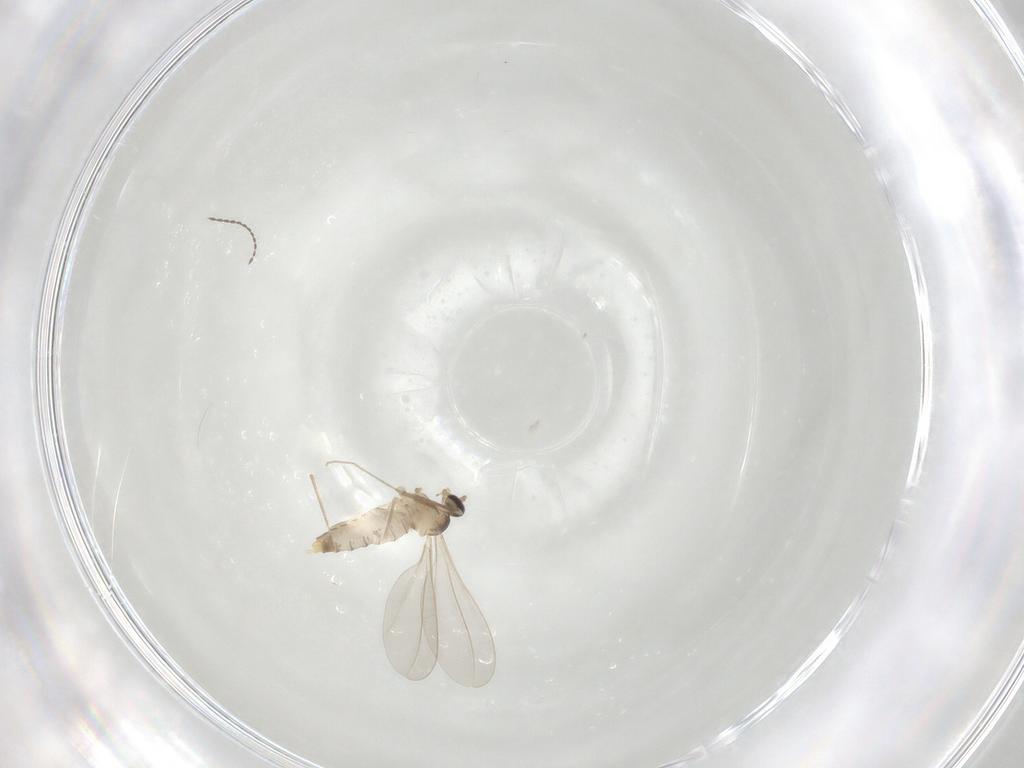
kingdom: Animalia
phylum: Arthropoda
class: Insecta
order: Diptera
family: Cecidomyiidae
